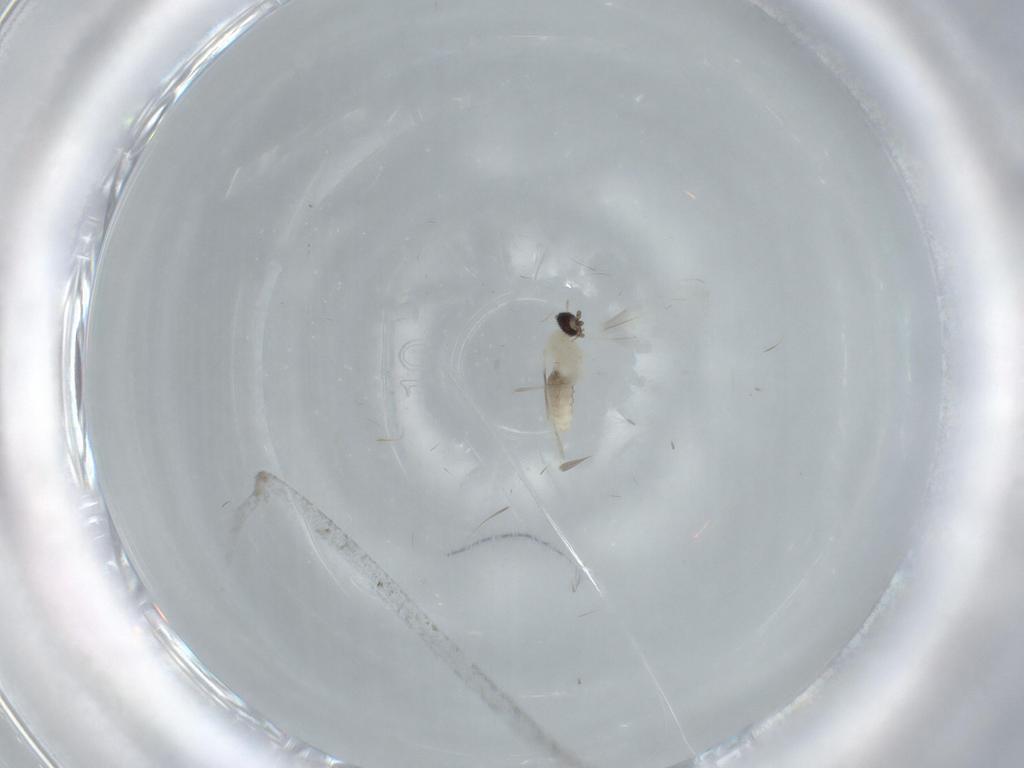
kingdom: Animalia
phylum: Arthropoda
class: Insecta
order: Diptera
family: Cecidomyiidae
